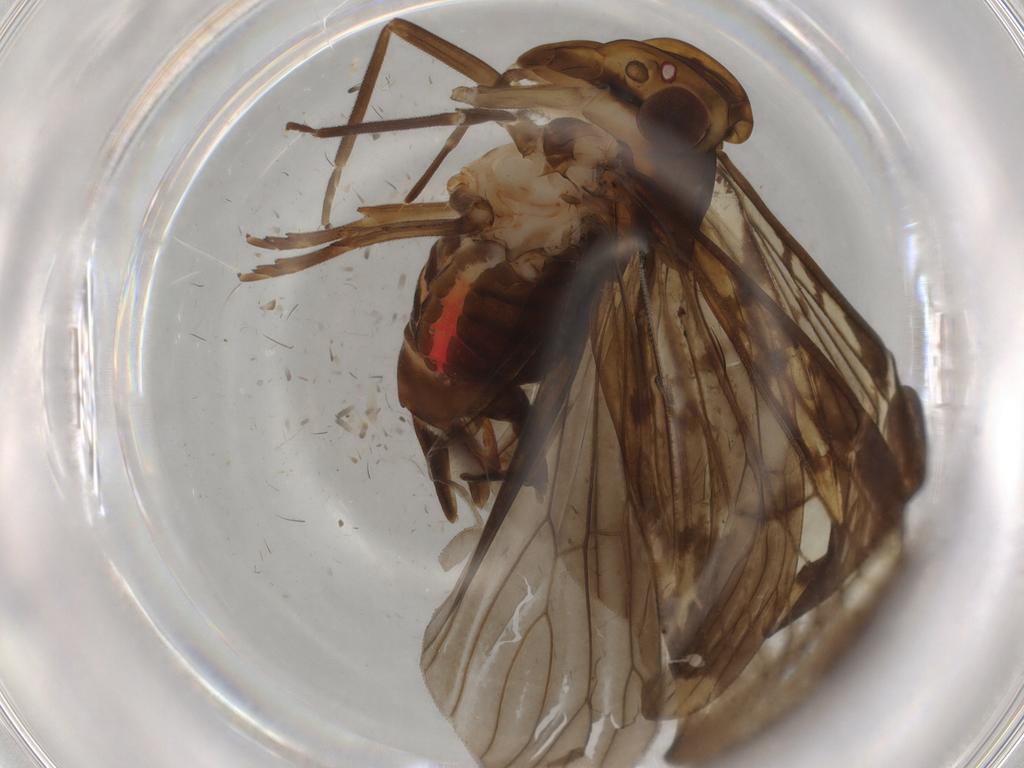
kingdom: Animalia
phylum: Arthropoda
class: Insecta
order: Hemiptera
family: Cixiidae
